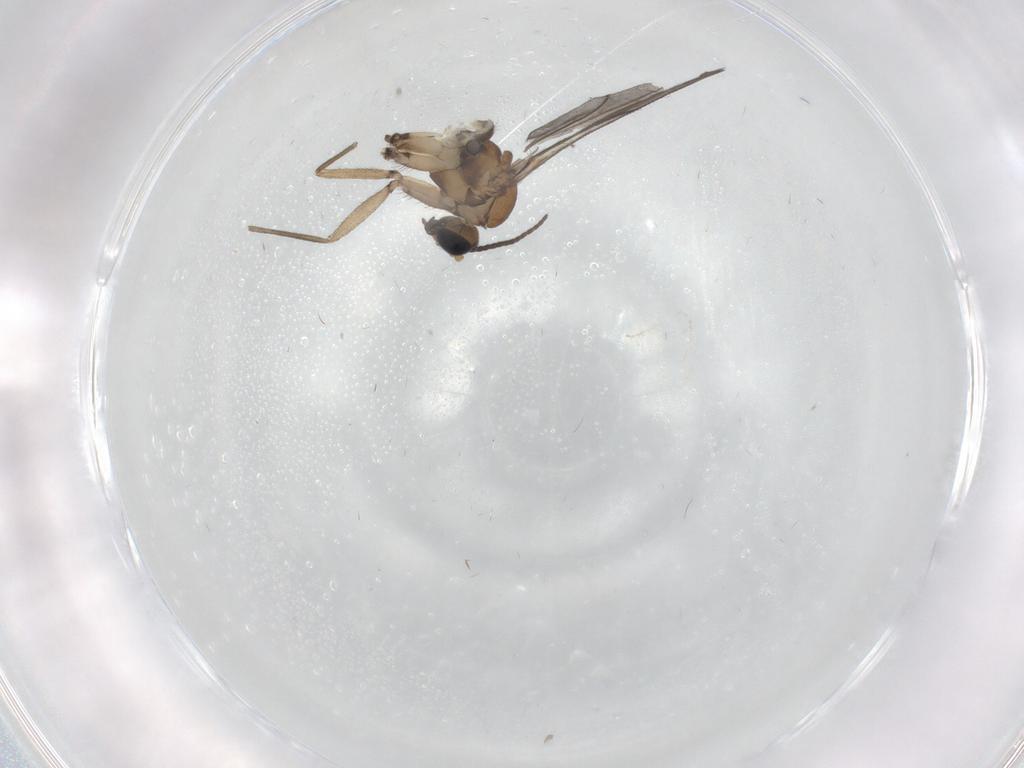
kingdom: Animalia
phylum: Arthropoda
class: Insecta
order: Diptera
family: Sciaridae
